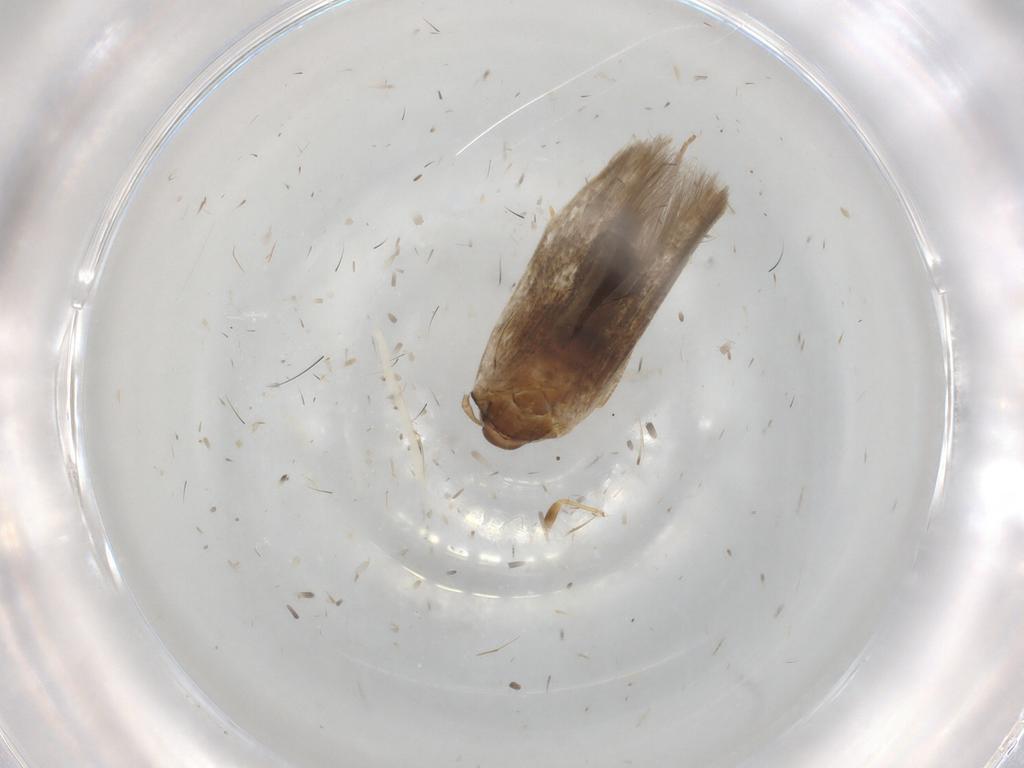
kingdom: Animalia
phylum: Arthropoda
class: Insecta
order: Lepidoptera
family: Cosmopterigidae
